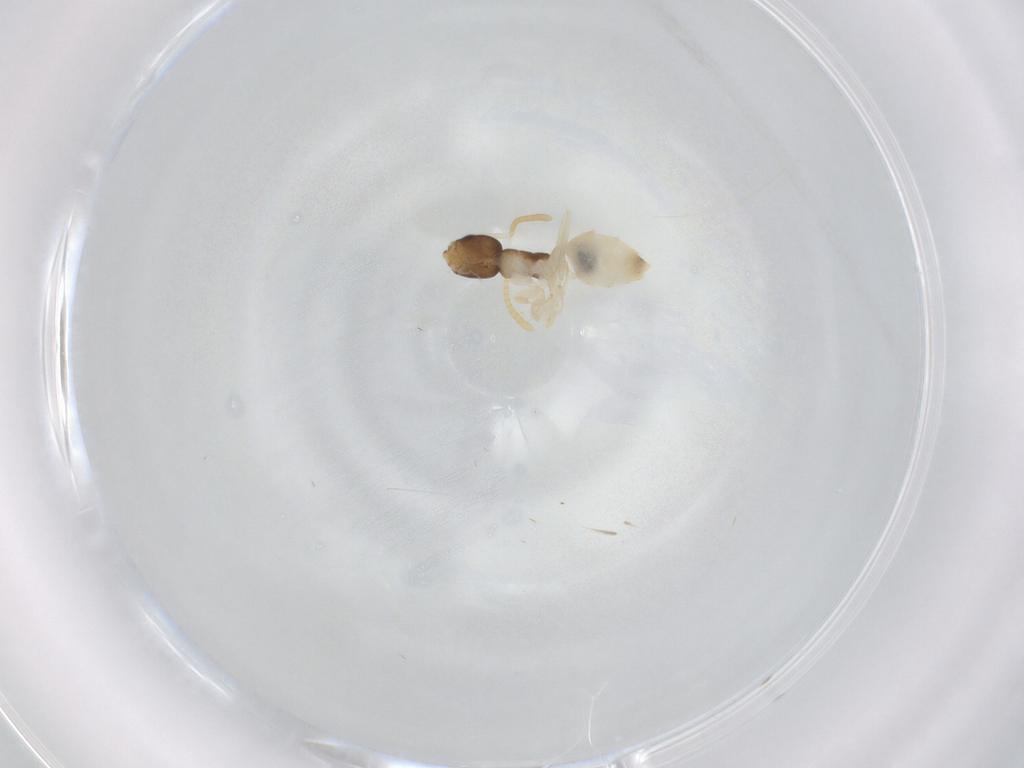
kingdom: Animalia
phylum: Arthropoda
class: Insecta
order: Hymenoptera
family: Formicidae
